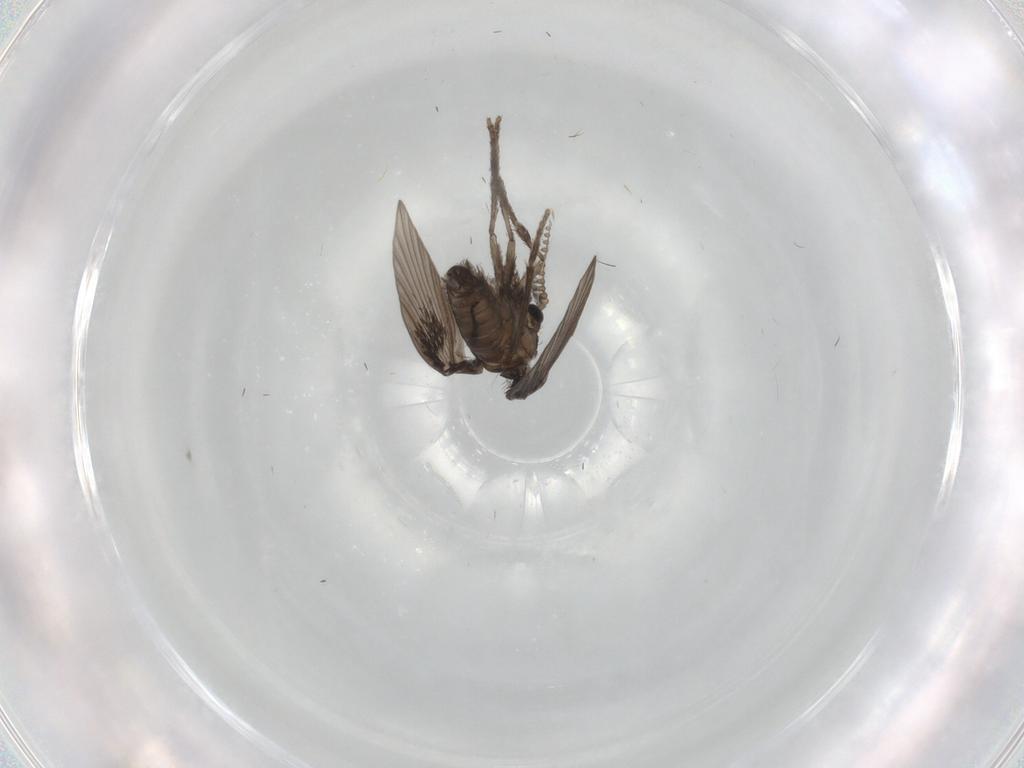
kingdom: Animalia
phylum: Arthropoda
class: Insecta
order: Diptera
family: Psychodidae
